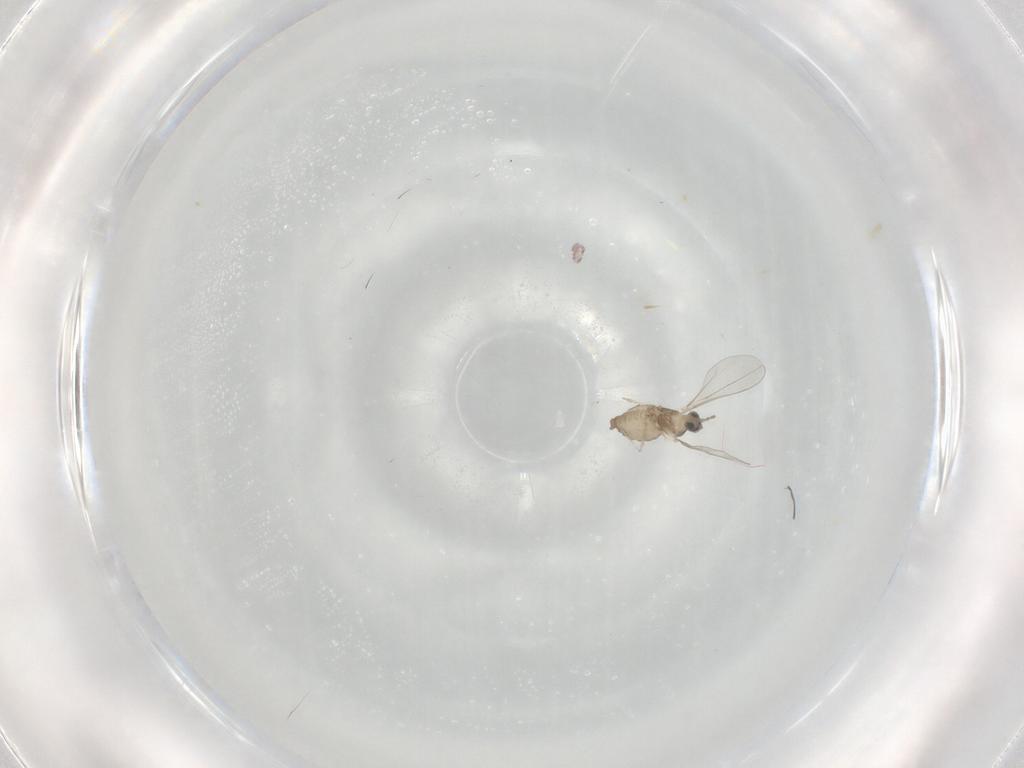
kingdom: Animalia
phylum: Arthropoda
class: Insecta
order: Diptera
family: Cecidomyiidae
